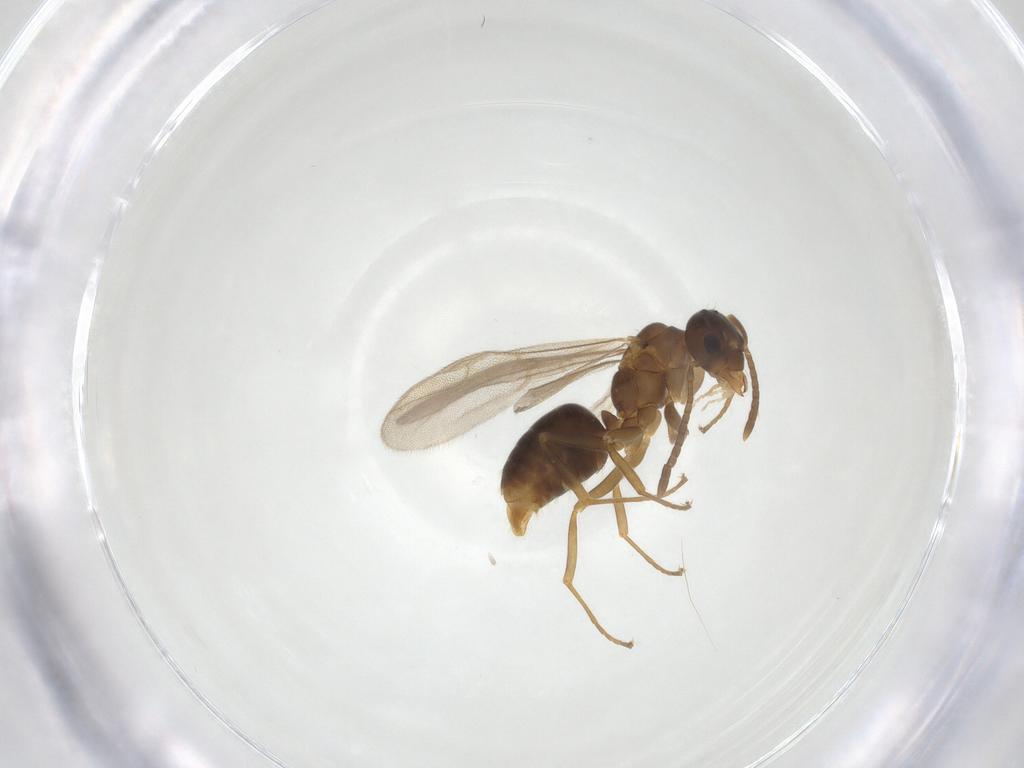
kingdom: Animalia
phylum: Arthropoda
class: Insecta
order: Hymenoptera
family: Formicidae
